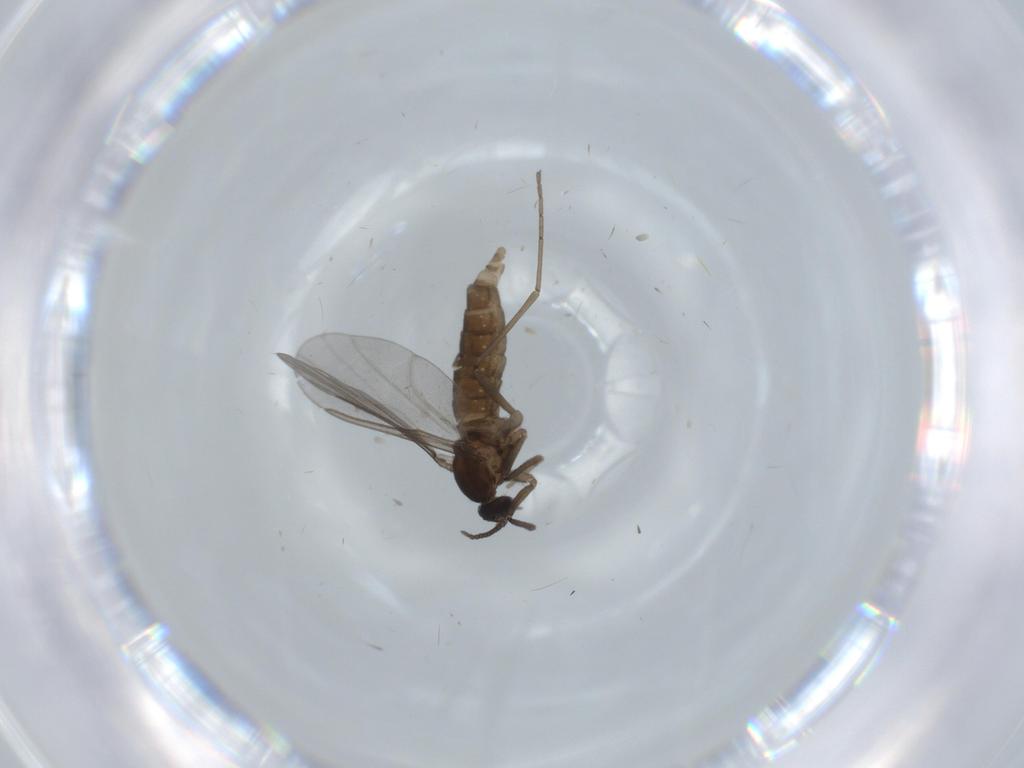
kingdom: Animalia
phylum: Arthropoda
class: Insecta
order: Diptera
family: Cecidomyiidae
